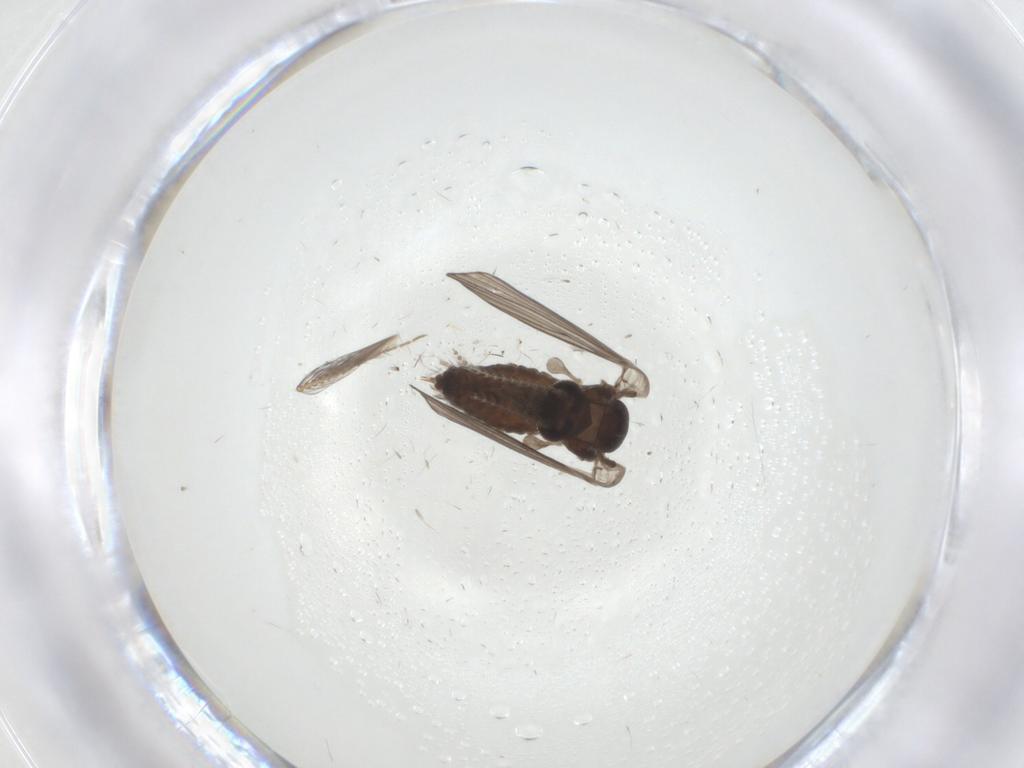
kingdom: Animalia
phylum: Arthropoda
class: Insecta
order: Diptera
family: Psychodidae
